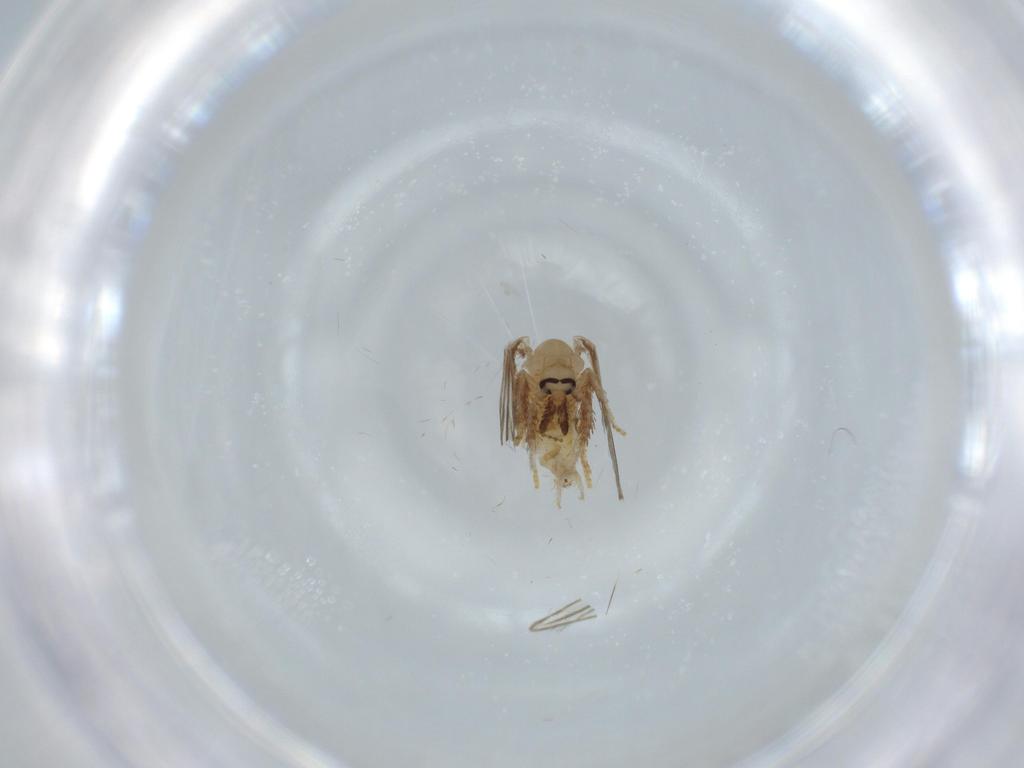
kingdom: Animalia
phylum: Arthropoda
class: Insecta
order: Diptera
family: Psychodidae
